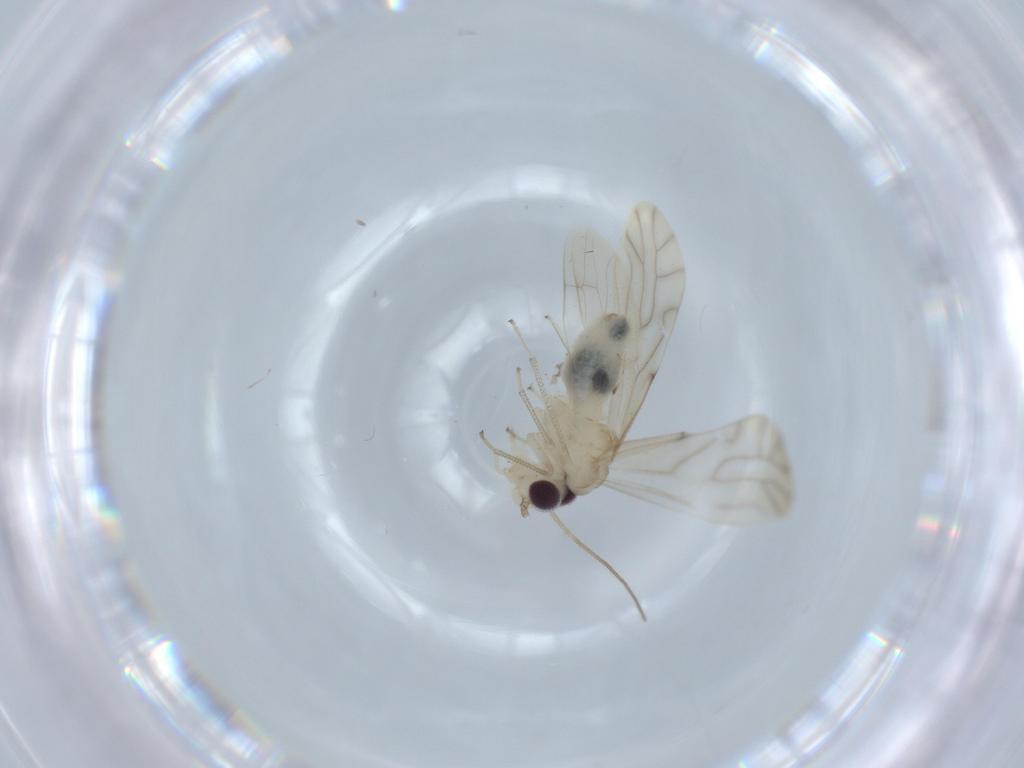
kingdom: Animalia
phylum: Arthropoda
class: Insecta
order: Psocodea
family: Caeciliusidae
